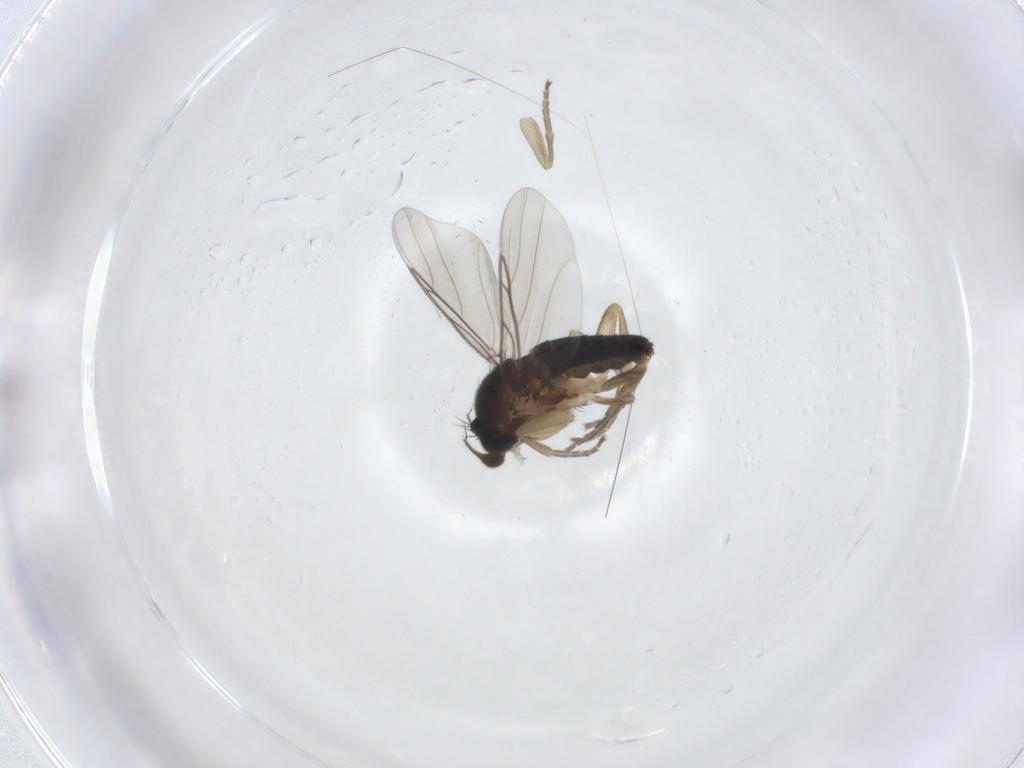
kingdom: Animalia
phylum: Arthropoda
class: Insecta
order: Diptera
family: Phoridae
